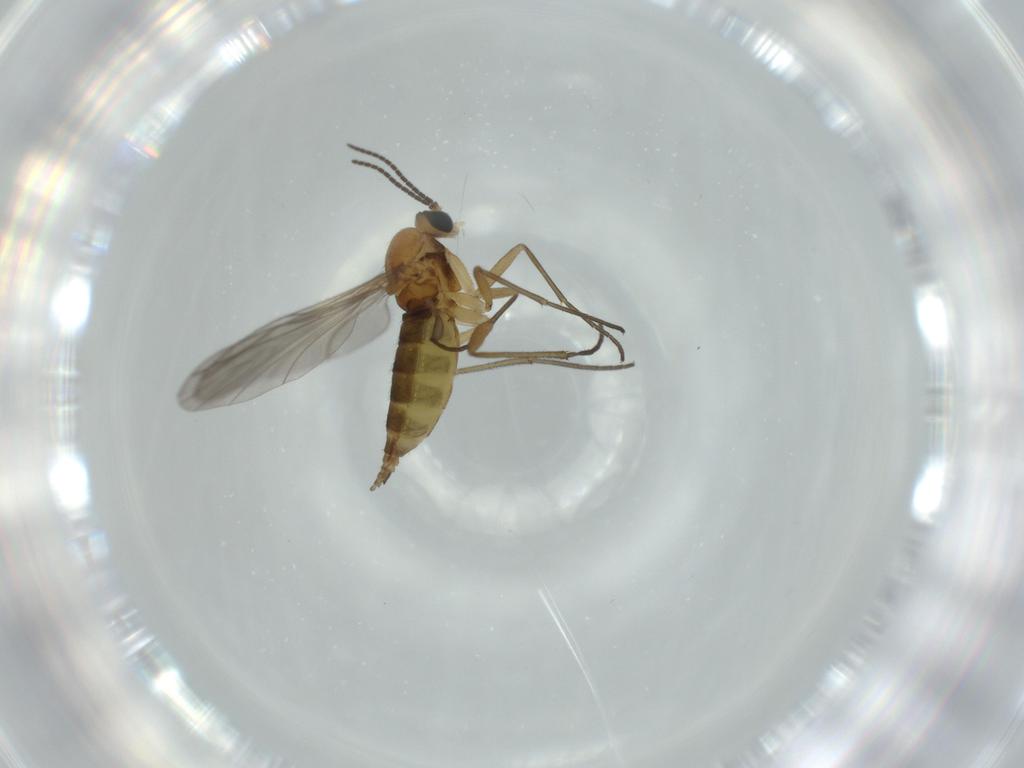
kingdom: Animalia
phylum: Arthropoda
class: Insecta
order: Diptera
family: Sciaridae
